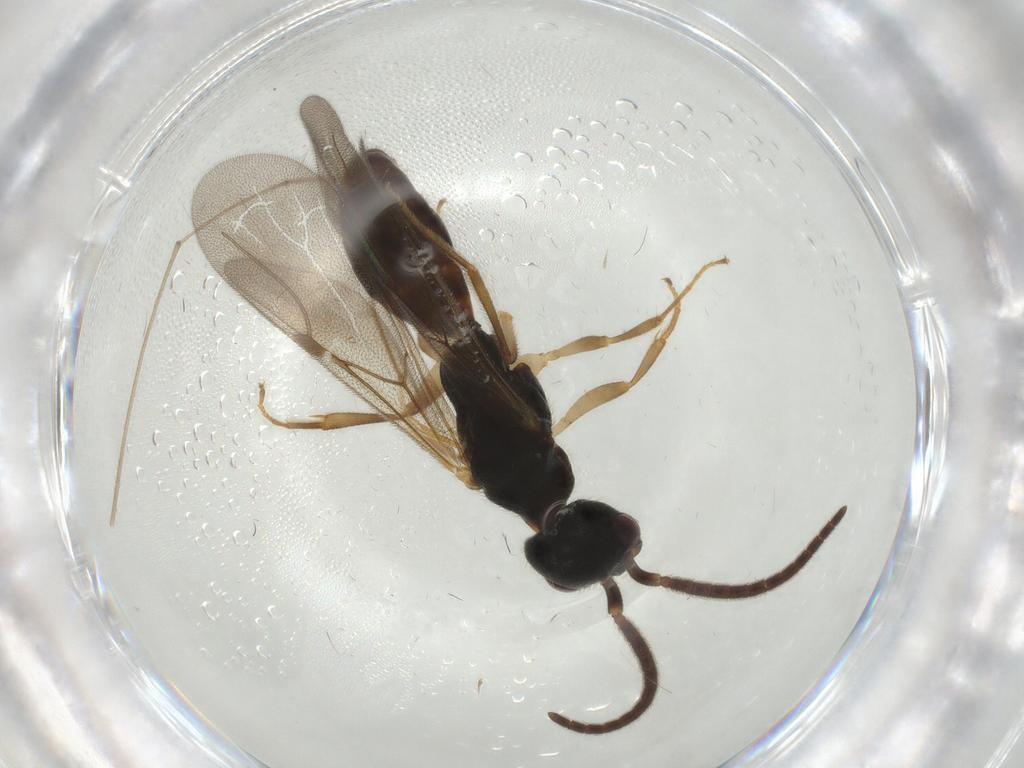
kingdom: Animalia
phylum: Arthropoda
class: Insecta
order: Hymenoptera
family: Bethylidae
